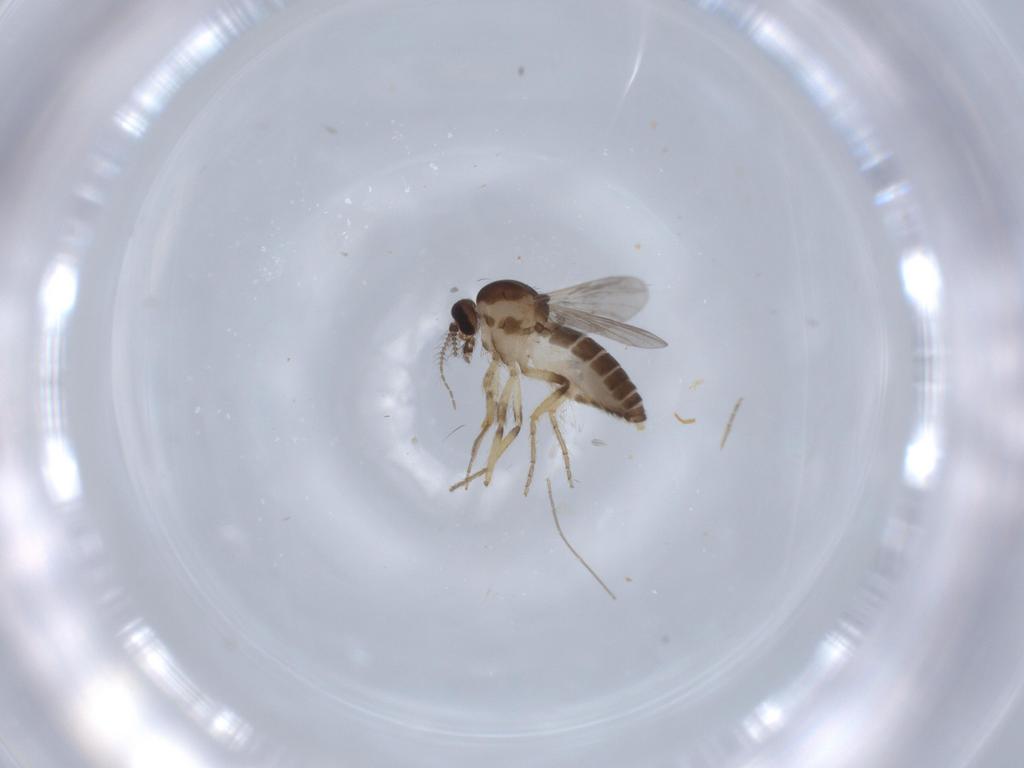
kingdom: Animalia
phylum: Arthropoda
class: Insecta
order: Diptera
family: Ceratopogonidae
